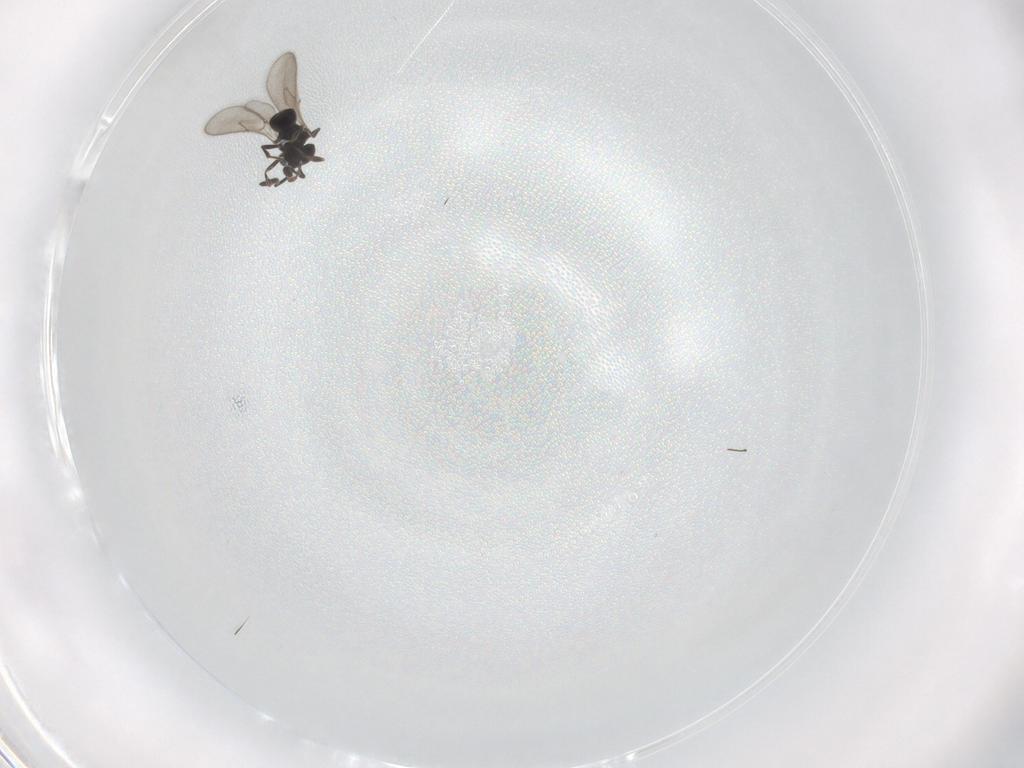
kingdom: Animalia
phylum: Arthropoda
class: Insecta
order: Hymenoptera
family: Scelionidae
